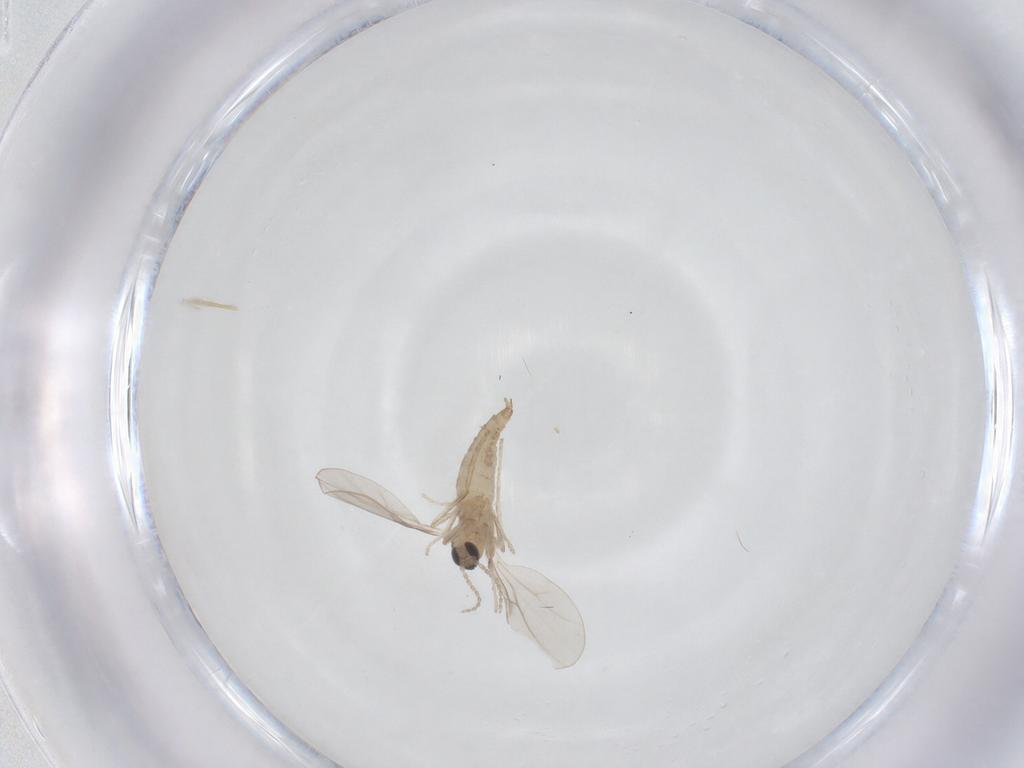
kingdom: Animalia
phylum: Arthropoda
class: Insecta
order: Diptera
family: Cecidomyiidae
